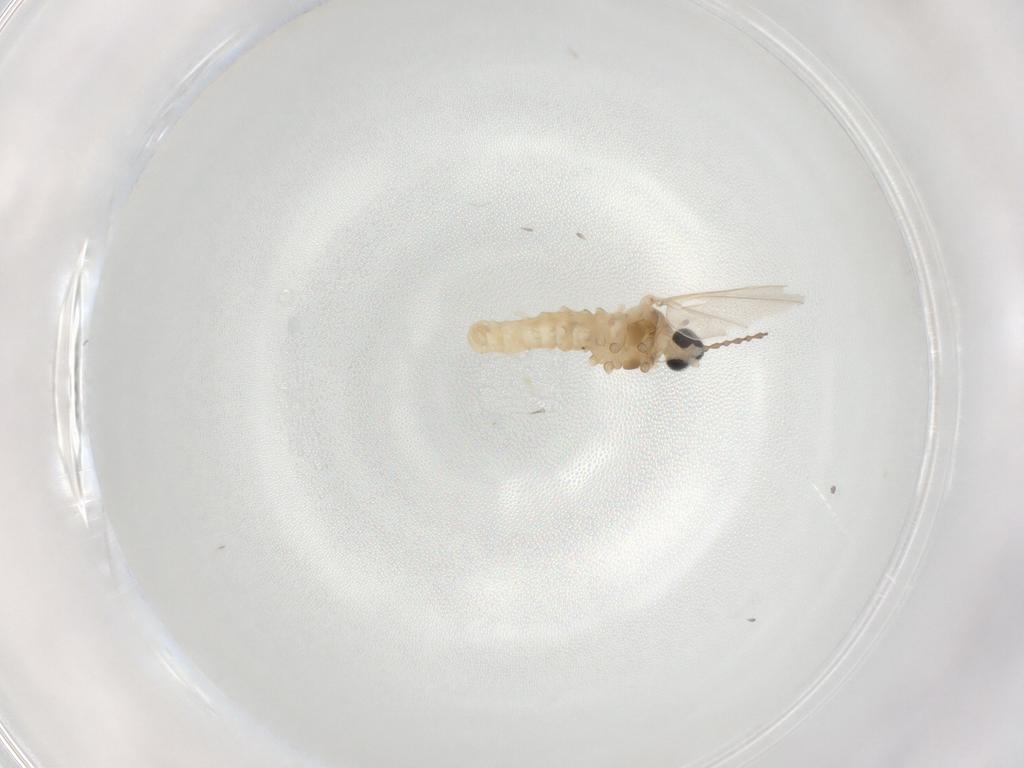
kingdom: Animalia
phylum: Arthropoda
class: Insecta
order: Diptera
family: Cecidomyiidae
